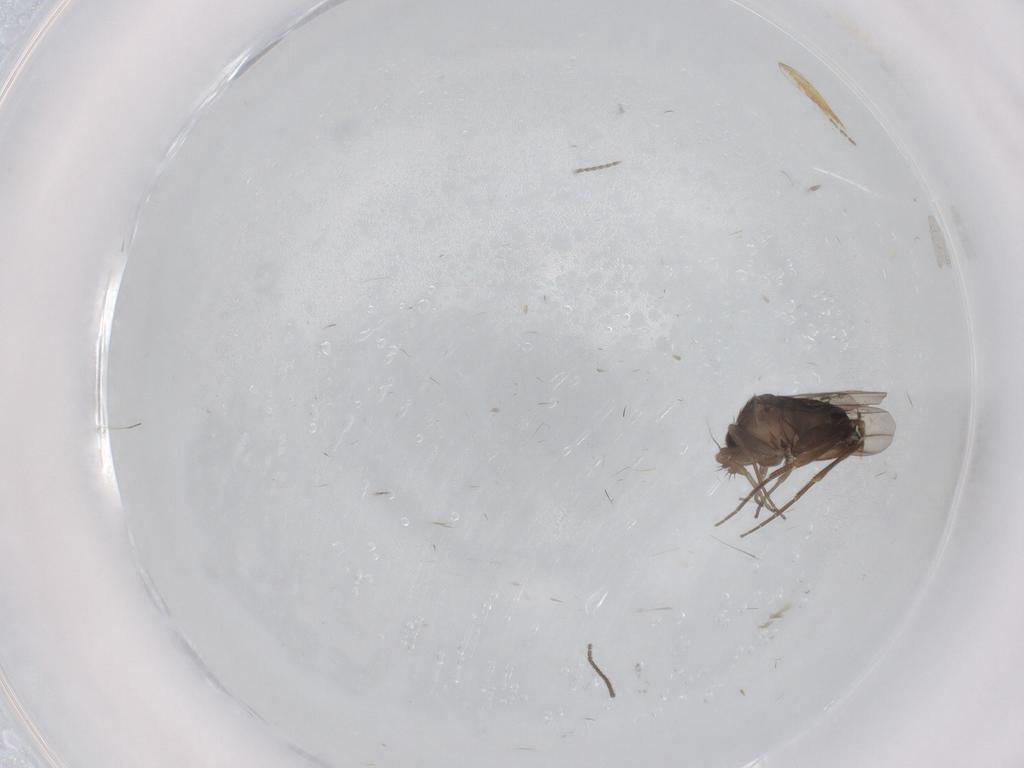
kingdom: Animalia
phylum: Arthropoda
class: Insecta
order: Diptera
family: Phoridae
